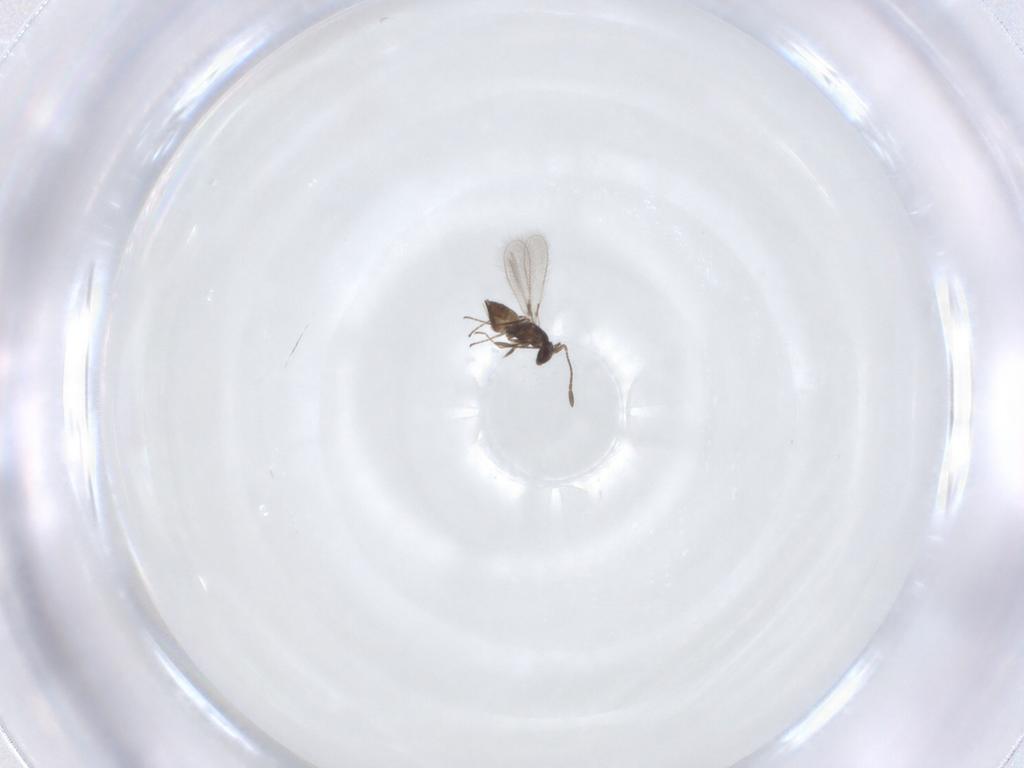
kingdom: Animalia
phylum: Arthropoda
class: Insecta
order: Hymenoptera
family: Mymaridae
